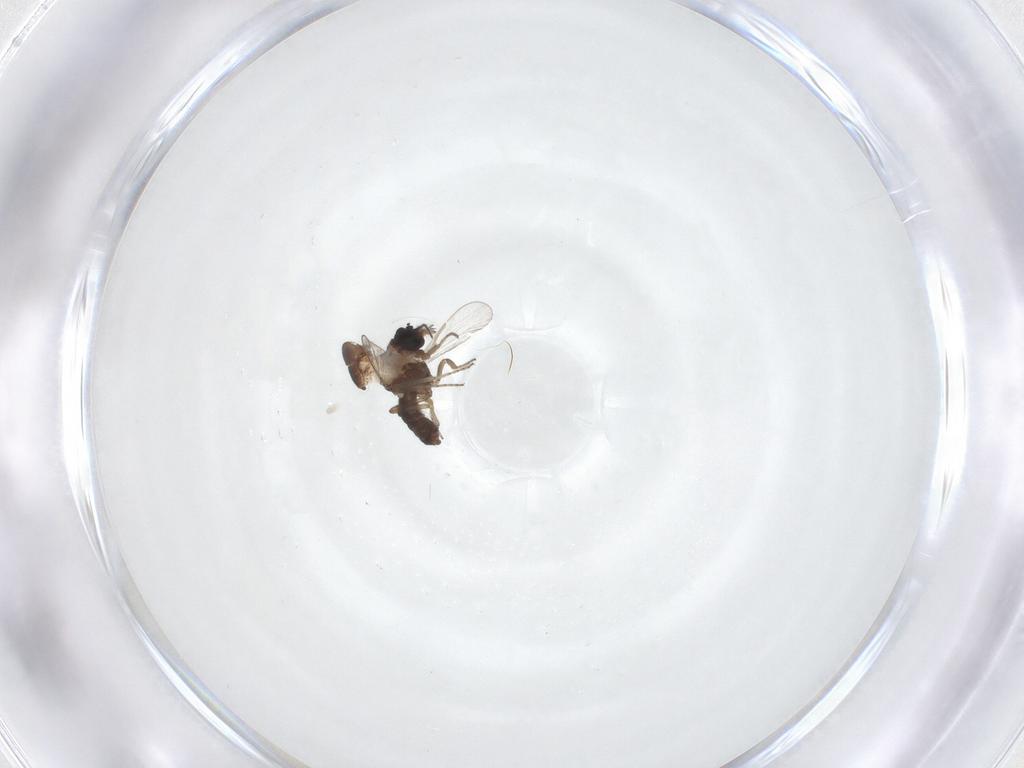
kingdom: Animalia
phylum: Arthropoda
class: Insecta
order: Diptera
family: Ceratopogonidae
